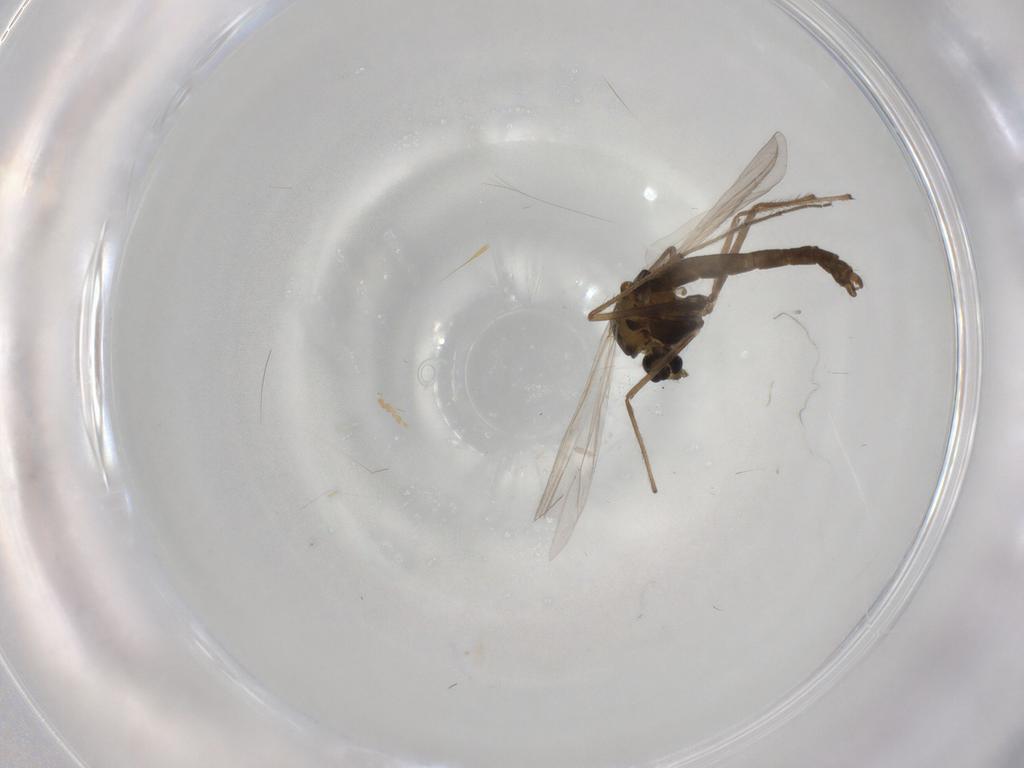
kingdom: Animalia
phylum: Arthropoda
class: Insecta
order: Diptera
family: Chironomidae
